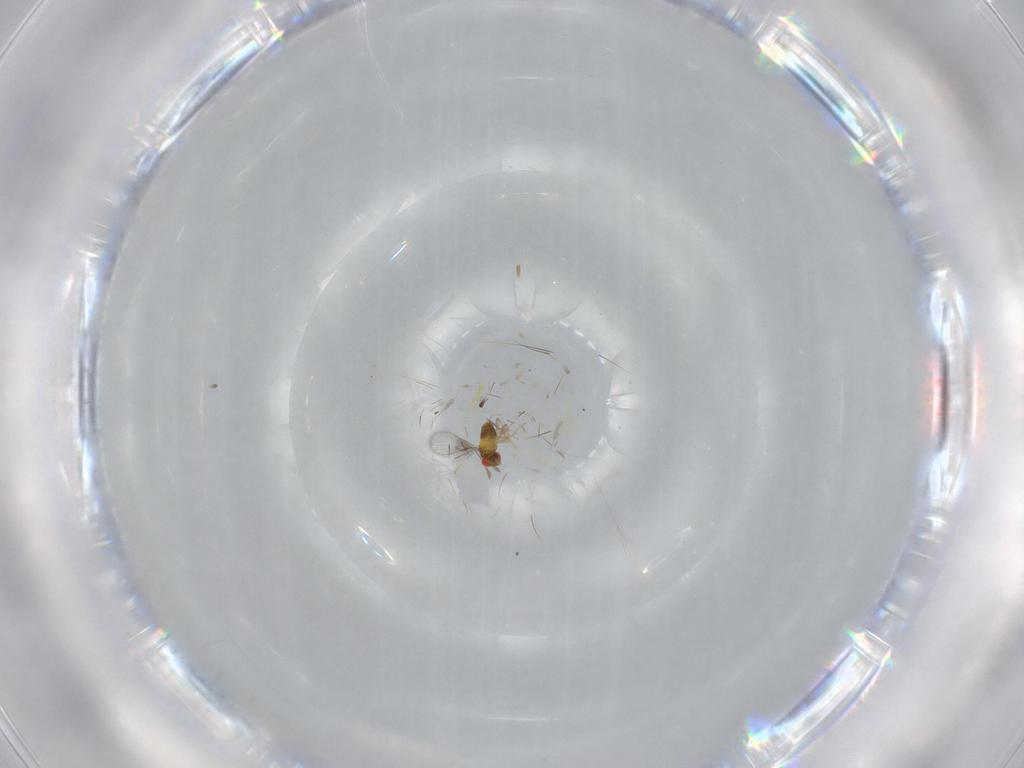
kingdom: Animalia
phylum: Arthropoda
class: Insecta
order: Hymenoptera
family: Trichogrammatidae
